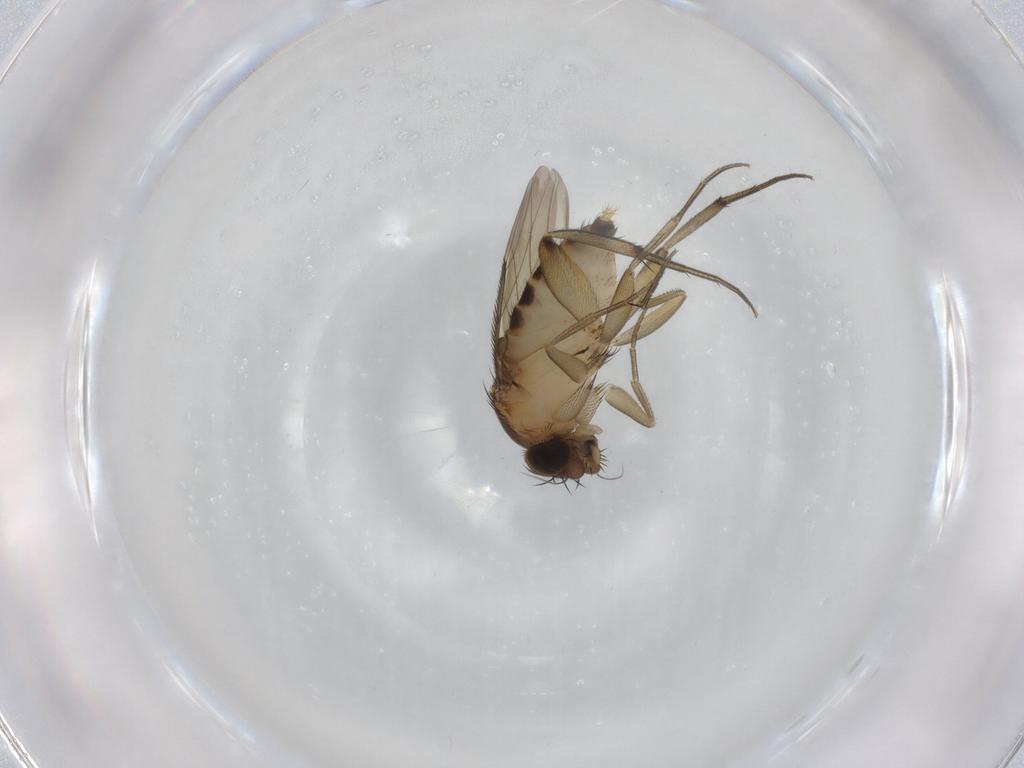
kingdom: Animalia
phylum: Arthropoda
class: Insecta
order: Diptera
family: Phoridae
